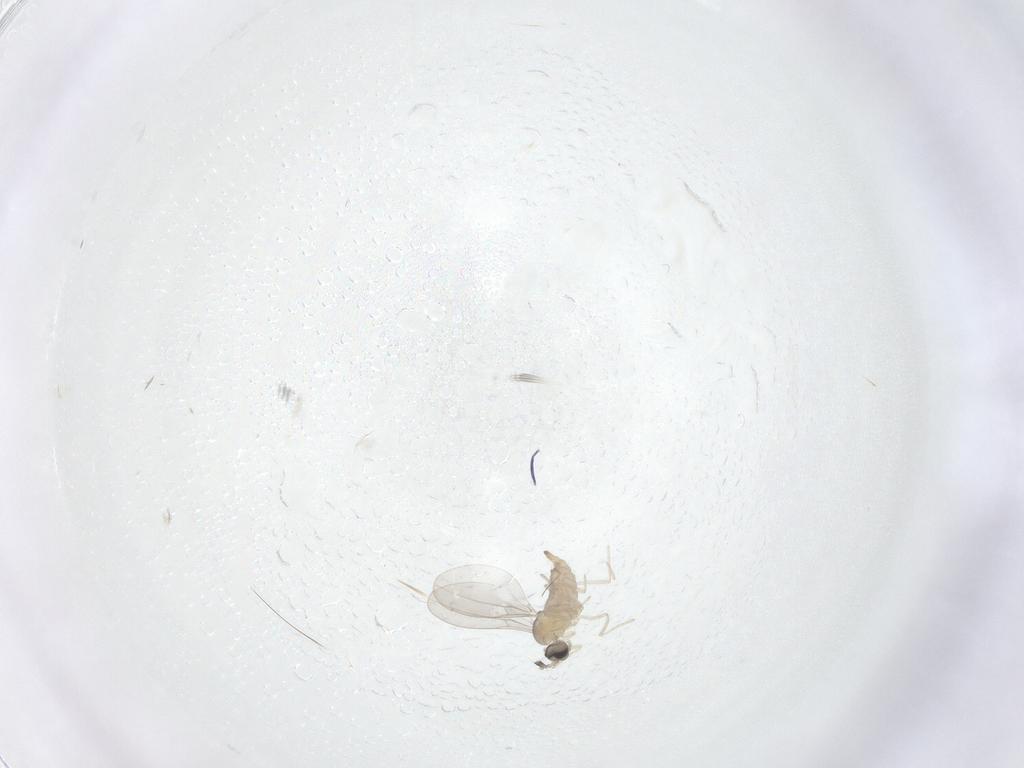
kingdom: Animalia
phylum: Arthropoda
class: Insecta
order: Diptera
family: Cecidomyiidae
